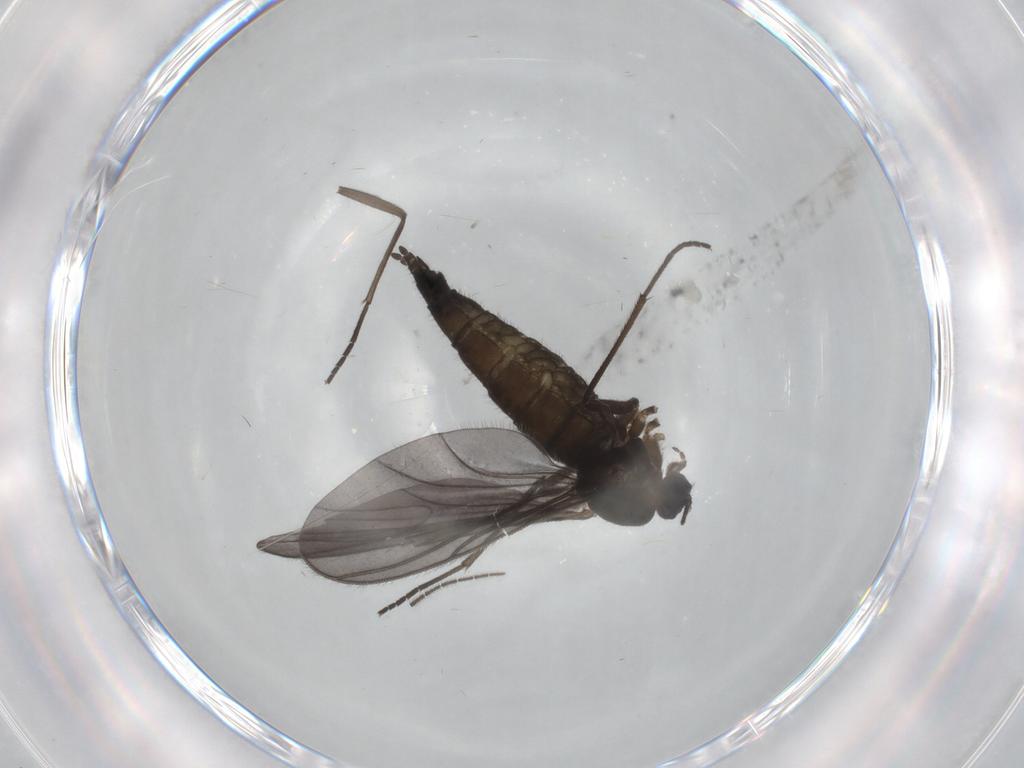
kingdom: Animalia
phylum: Arthropoda
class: Insecta
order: Diptera
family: Sciaridae
